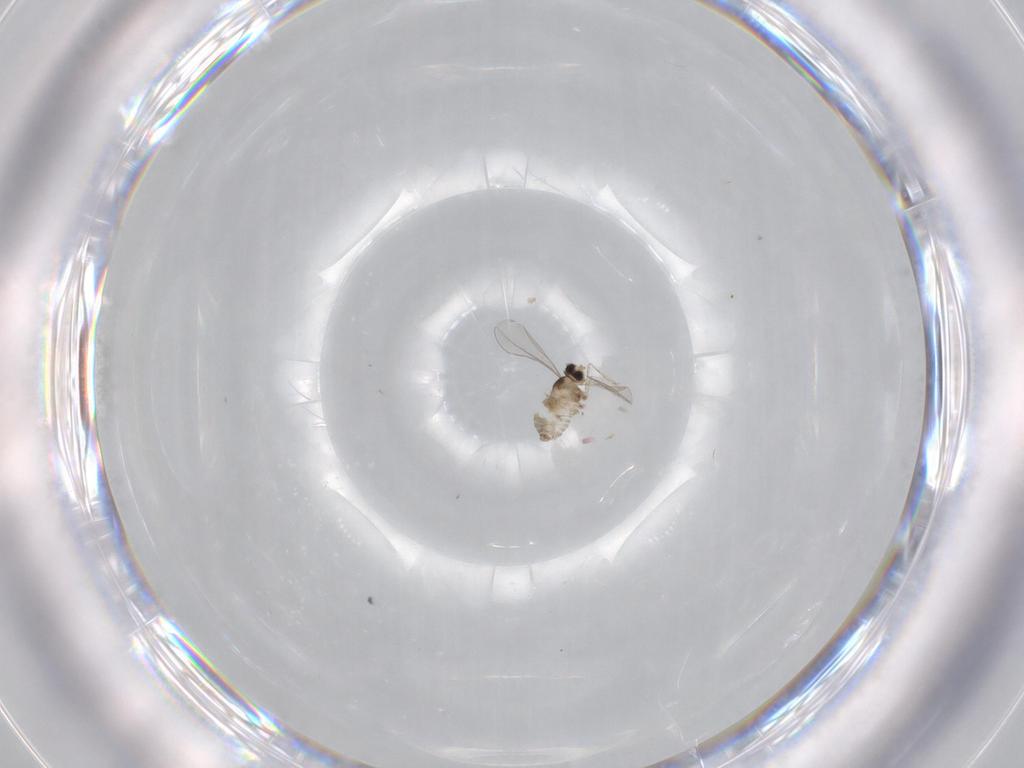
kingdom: Animalia
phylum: Arthropoda
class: Insecta
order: Diptera
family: Cecidomyiidae
